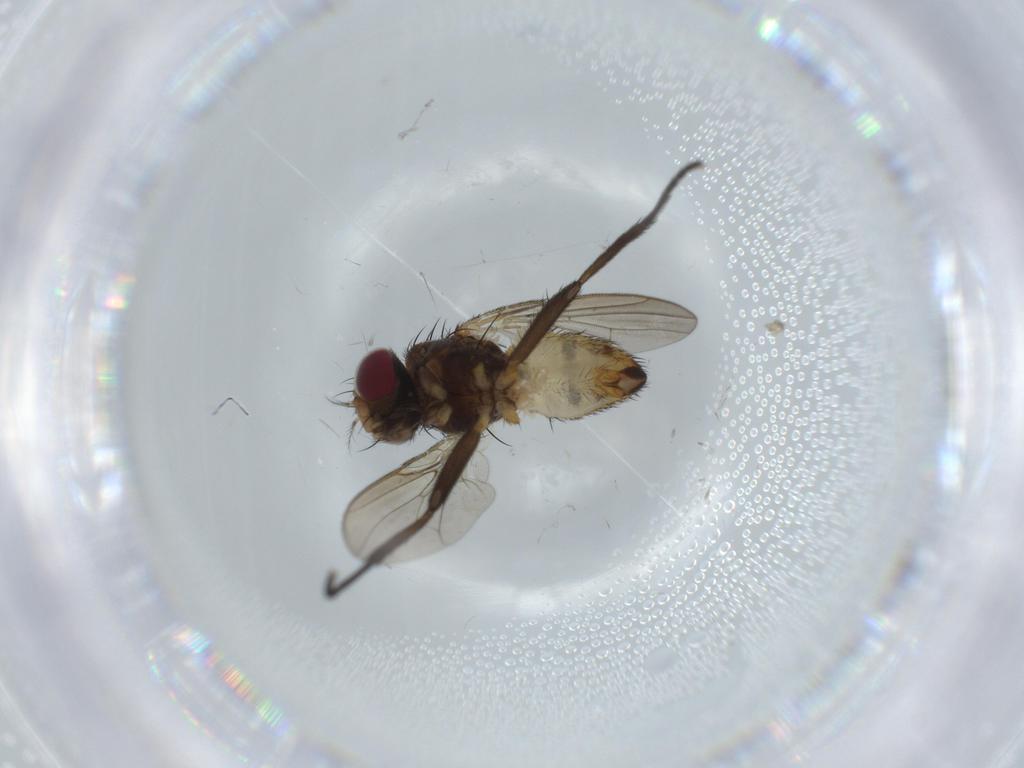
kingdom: Animalia
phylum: Arthropoda
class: Insecta
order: Diptera
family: Anthomyiidae
